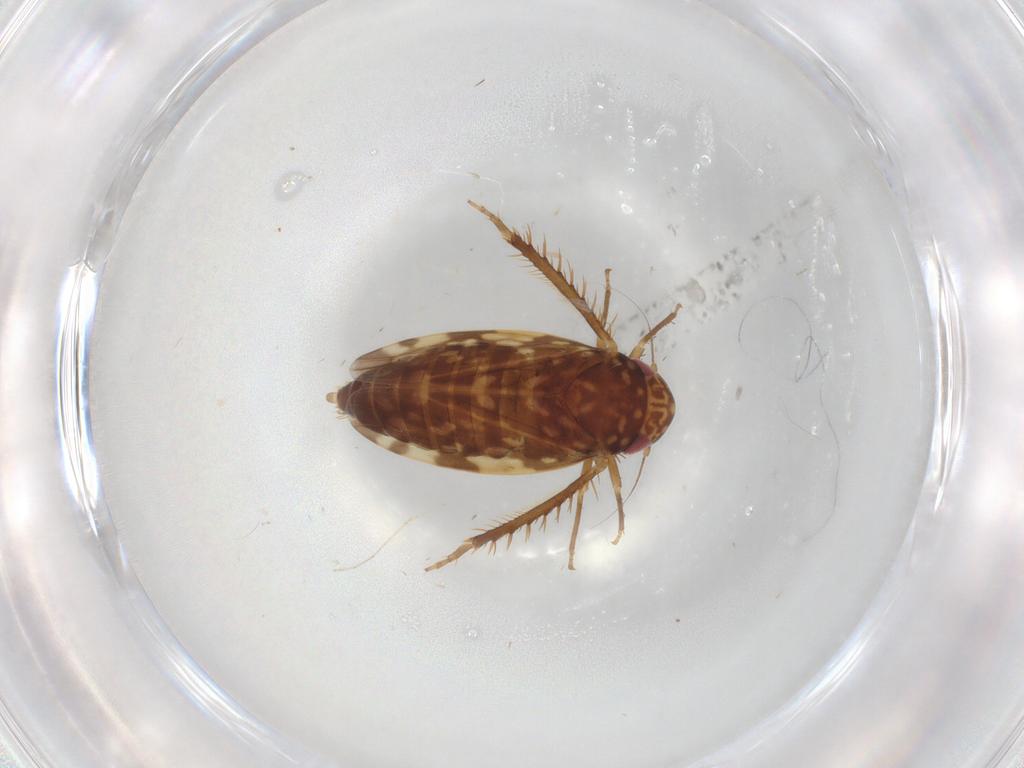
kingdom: Animalia
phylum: Arthropoda
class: Insecta
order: Hemiptera
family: Cicadellidae
